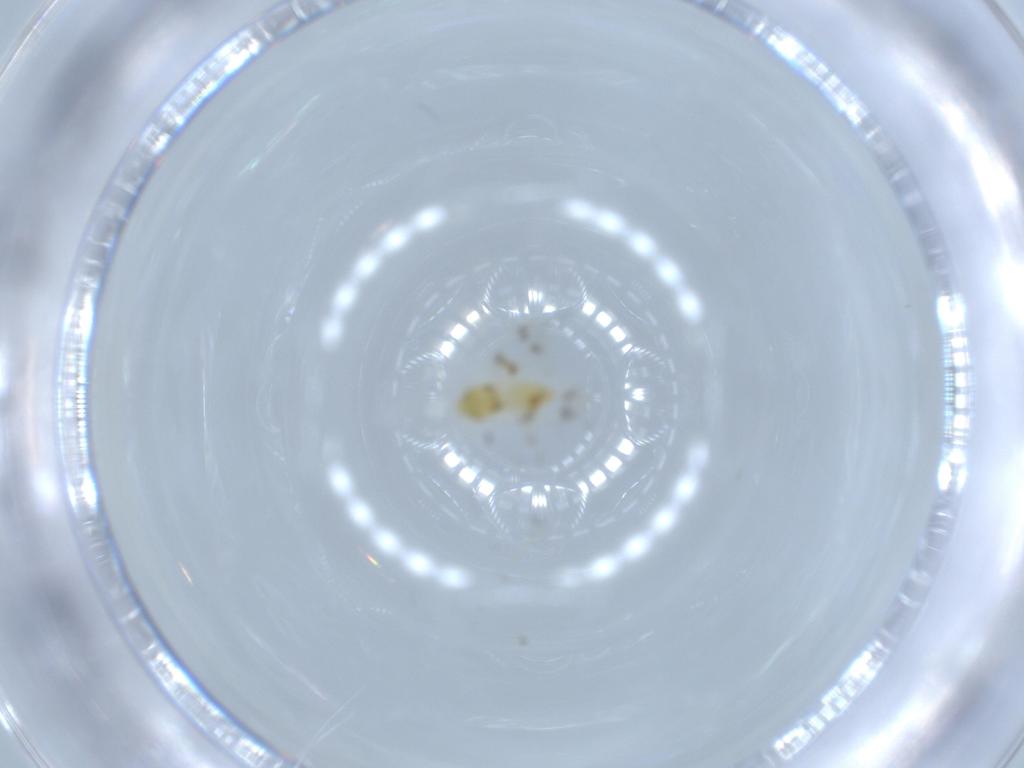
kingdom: Animalia
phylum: Arthropoda
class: Insecta
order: Hemiptera
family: Aleyrodidae
